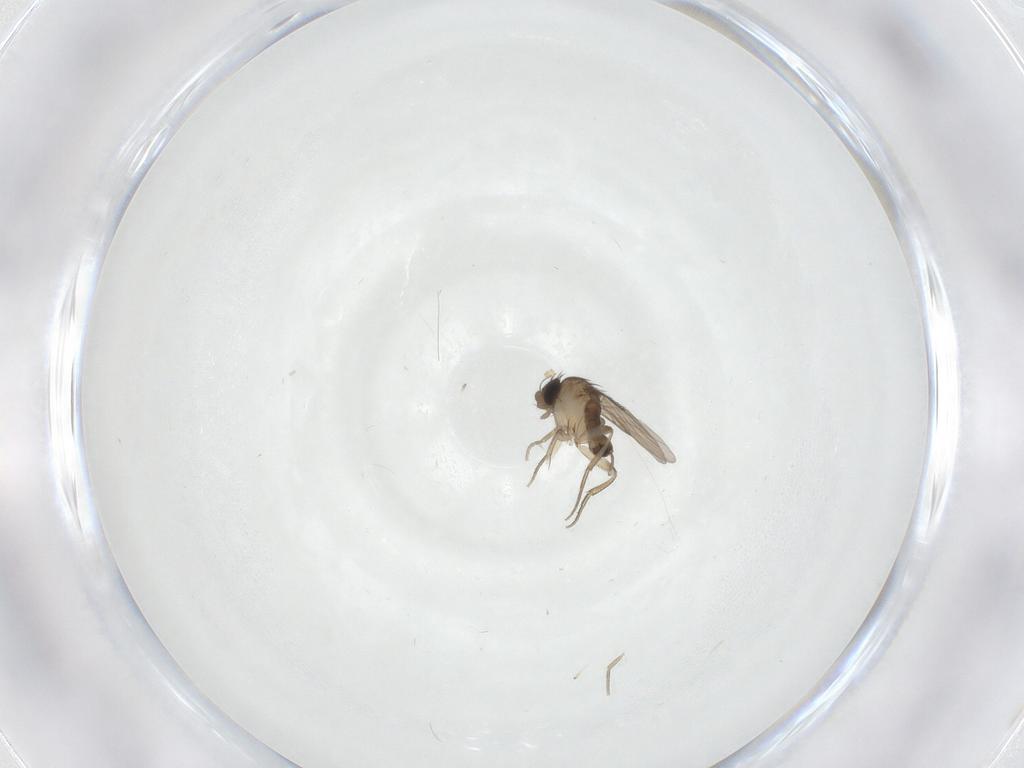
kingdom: Animalia
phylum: Arthropoda
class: Insecta
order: Diptera
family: Phoridae
